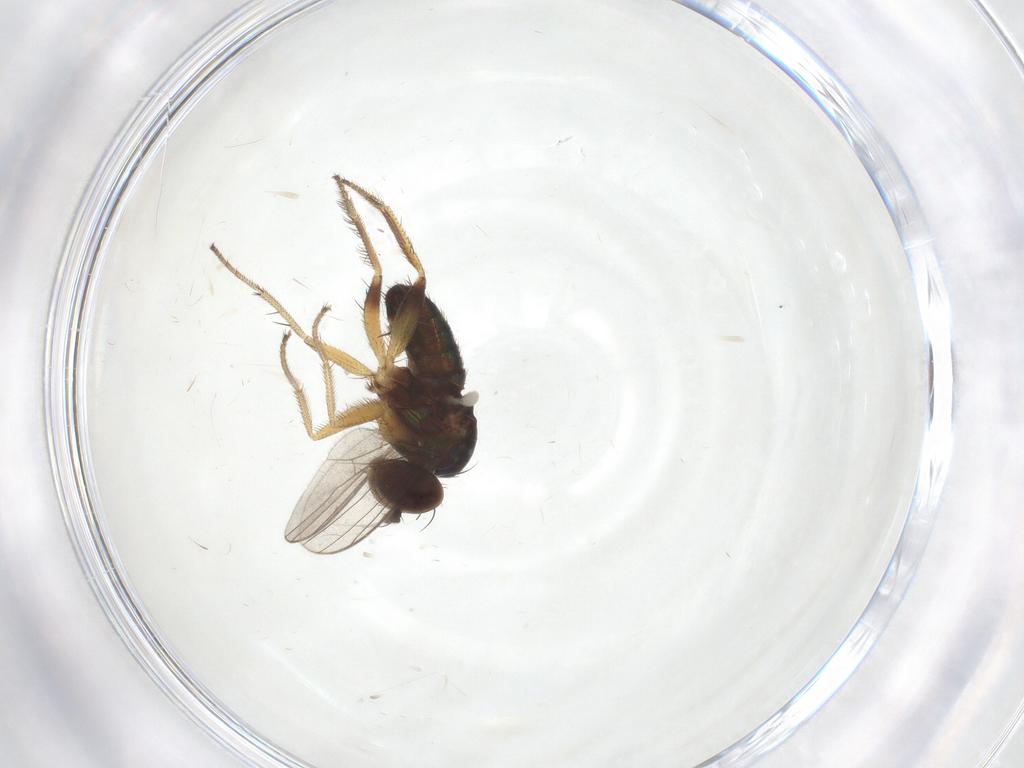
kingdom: Animalia
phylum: Arthropoda
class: Insecta
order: Diptera
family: Dolichopodidae
